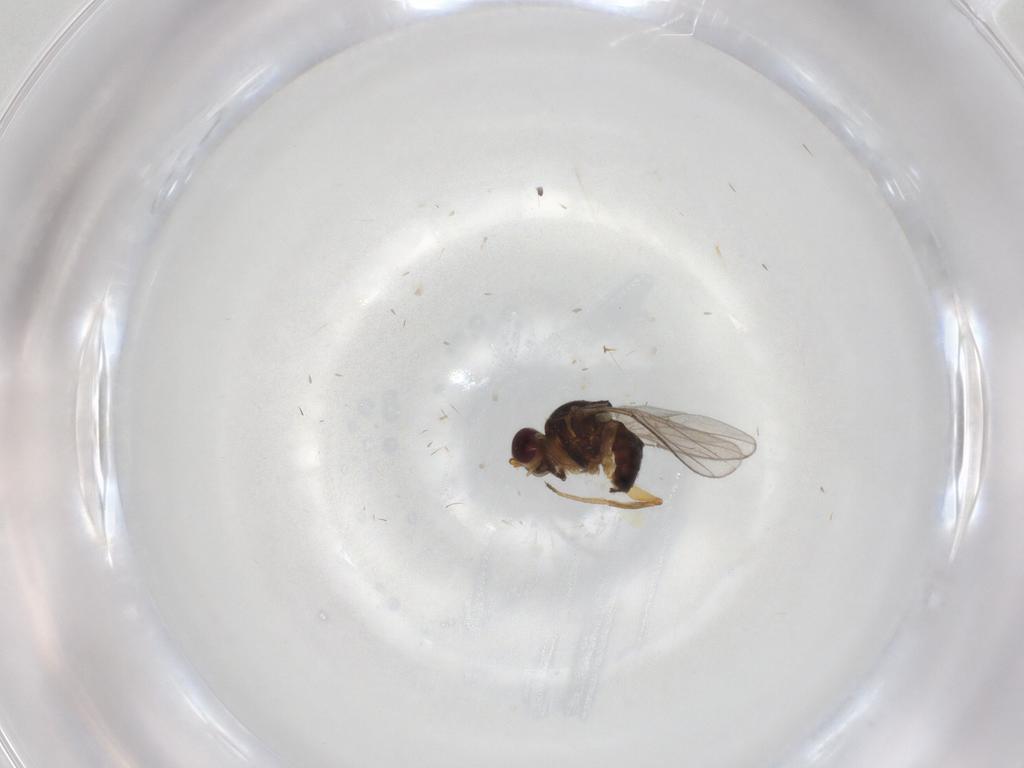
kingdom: Animalia
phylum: Arthropoda
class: Insecta
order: Diptera
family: Chloropidae
